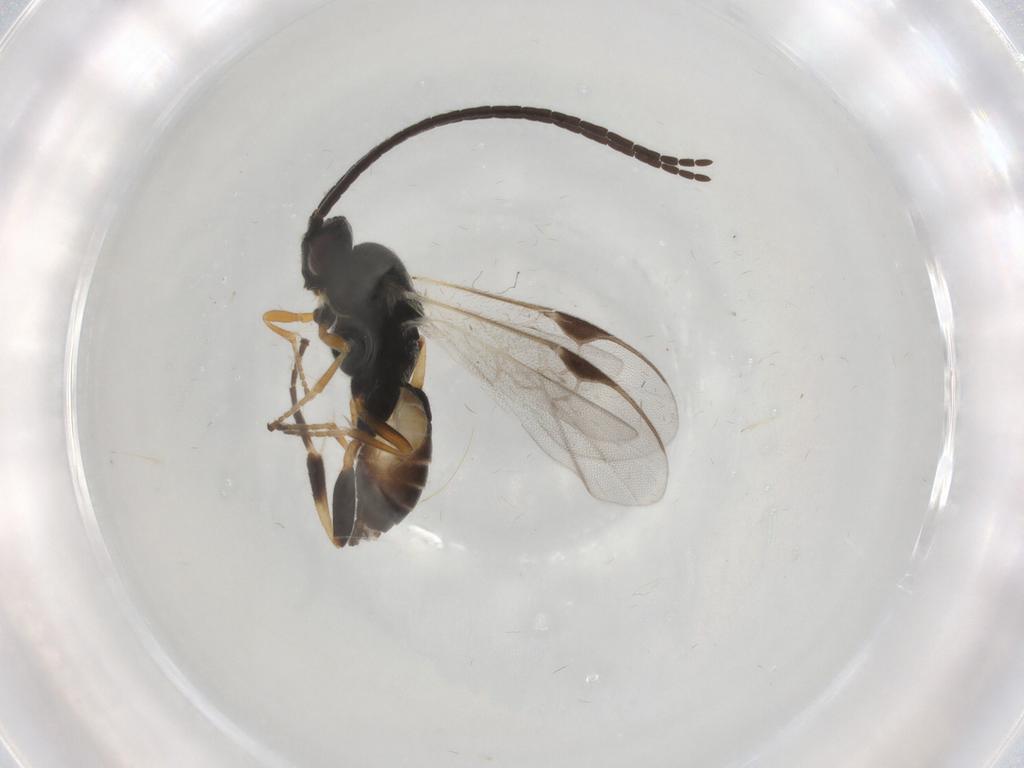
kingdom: Animalia
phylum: Arthropoda
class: Insecta
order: Hymenoptera
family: Braconidae
